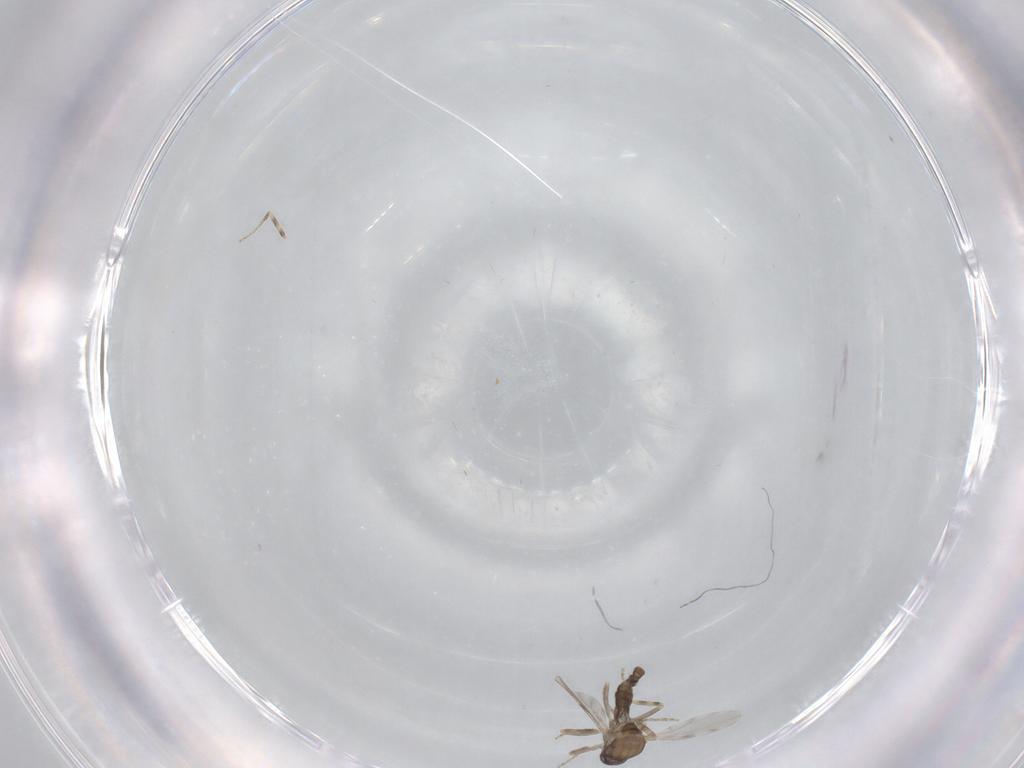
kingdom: Animalia
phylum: Arthropoda
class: Insecta
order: Diptera
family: Ceratopogonidae
